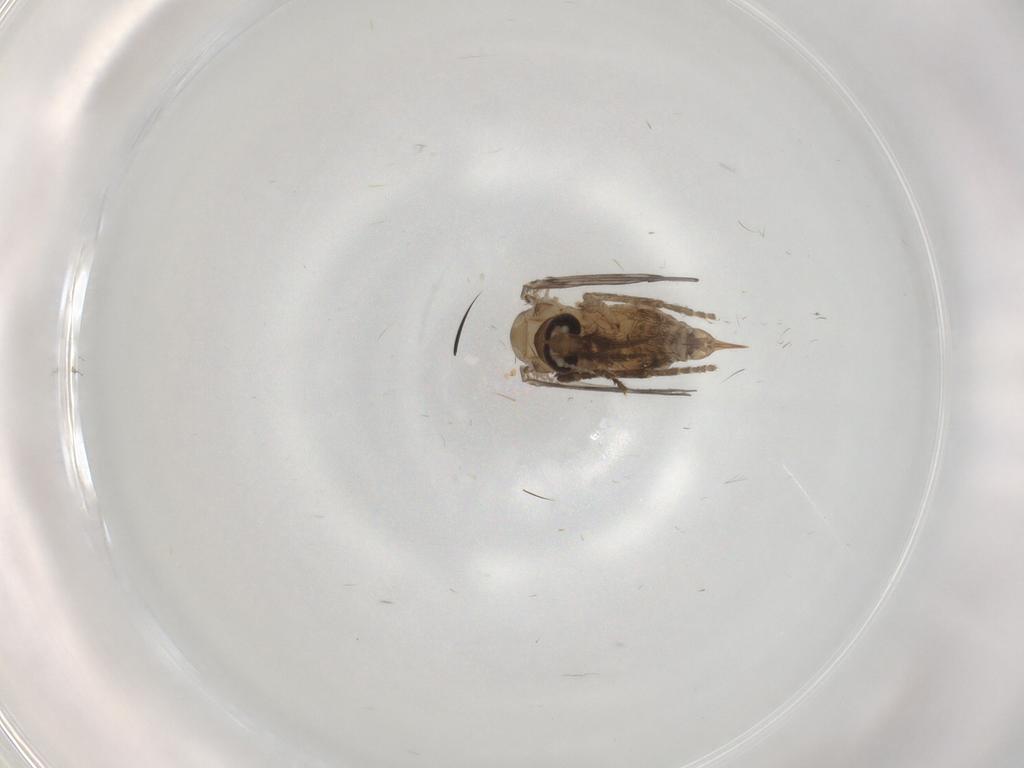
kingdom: Animalia
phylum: Arthropoda
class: Insecta
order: Diptera
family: Psychodidae
